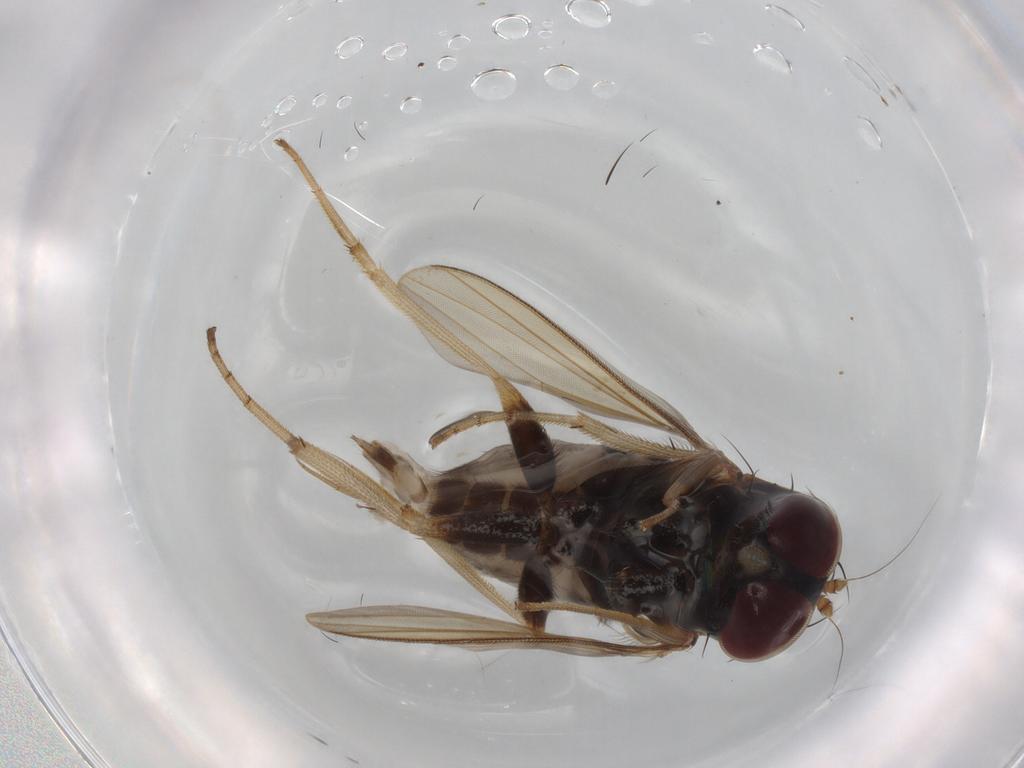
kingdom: Animalia
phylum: Arthropoda
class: Insecta
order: Diptera
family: Dolichopodidae
